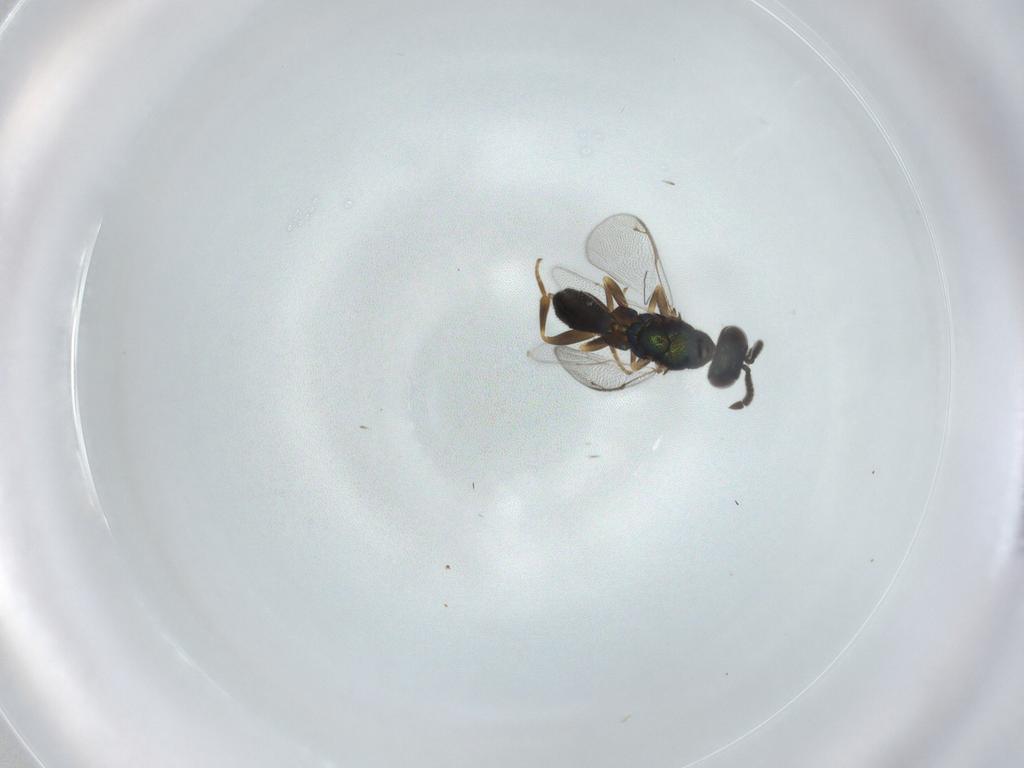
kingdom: Animalia
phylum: Arthropoda
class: Insecta
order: Hymenoptera
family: Cleonyminae
